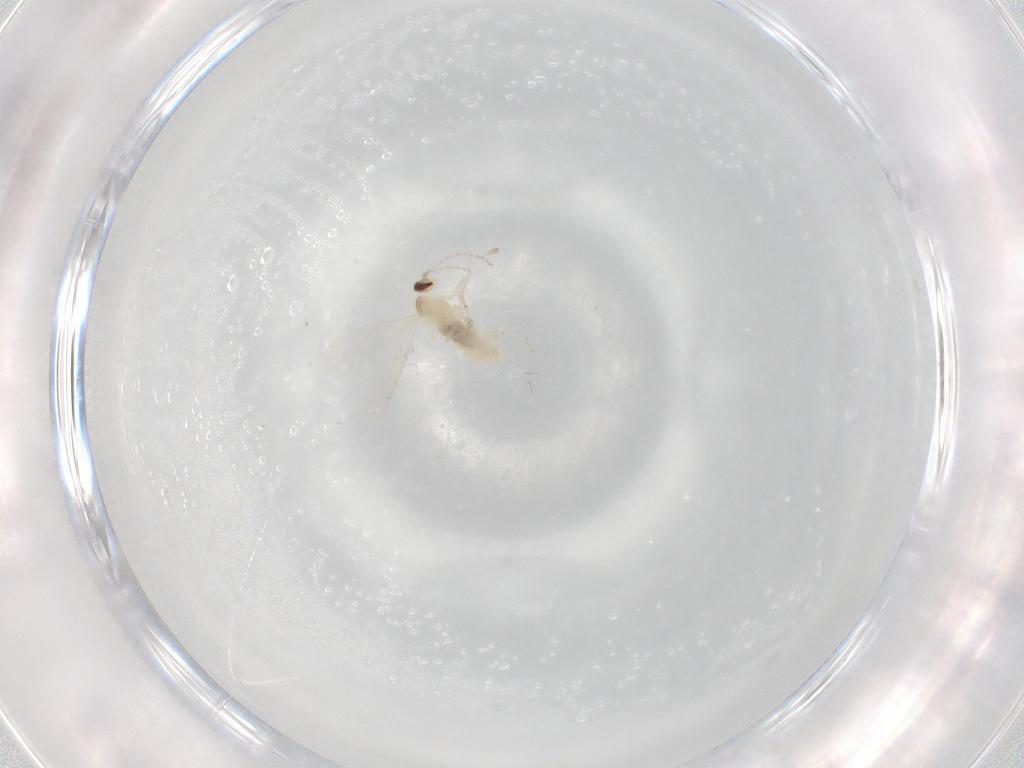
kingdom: Animalia
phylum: Arthropoda
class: Insecta
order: Diptera
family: Cecidomyiidae
